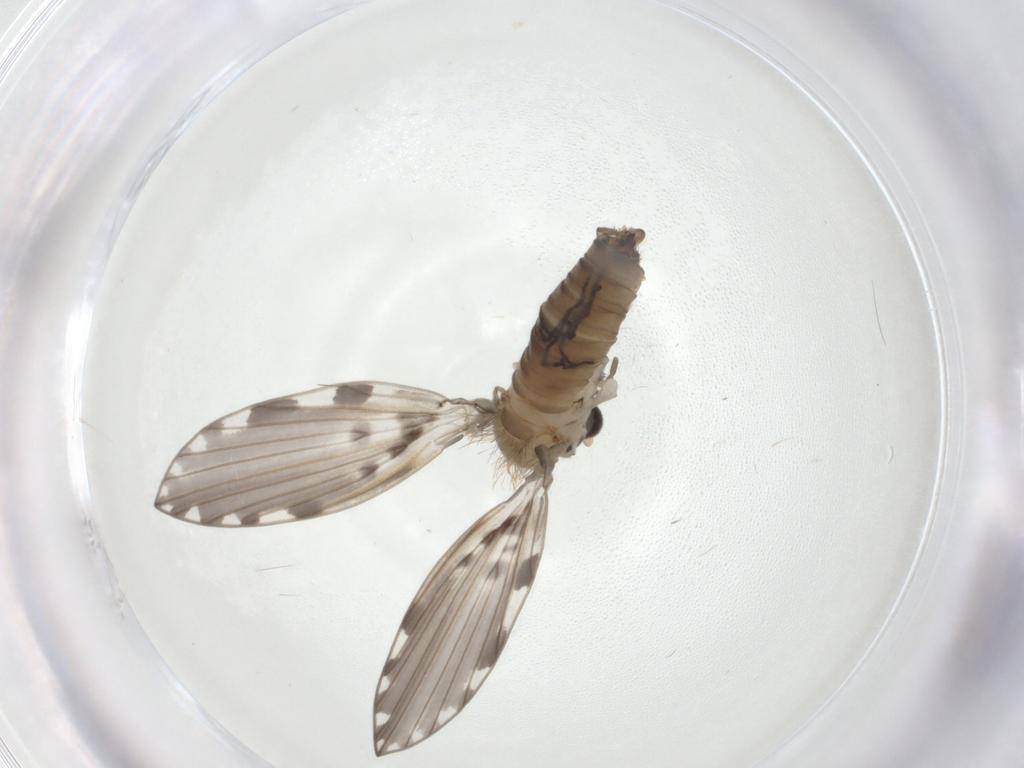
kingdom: Animalia
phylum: Arthropoda
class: Insecta
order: Diptera
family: Psychodidae
